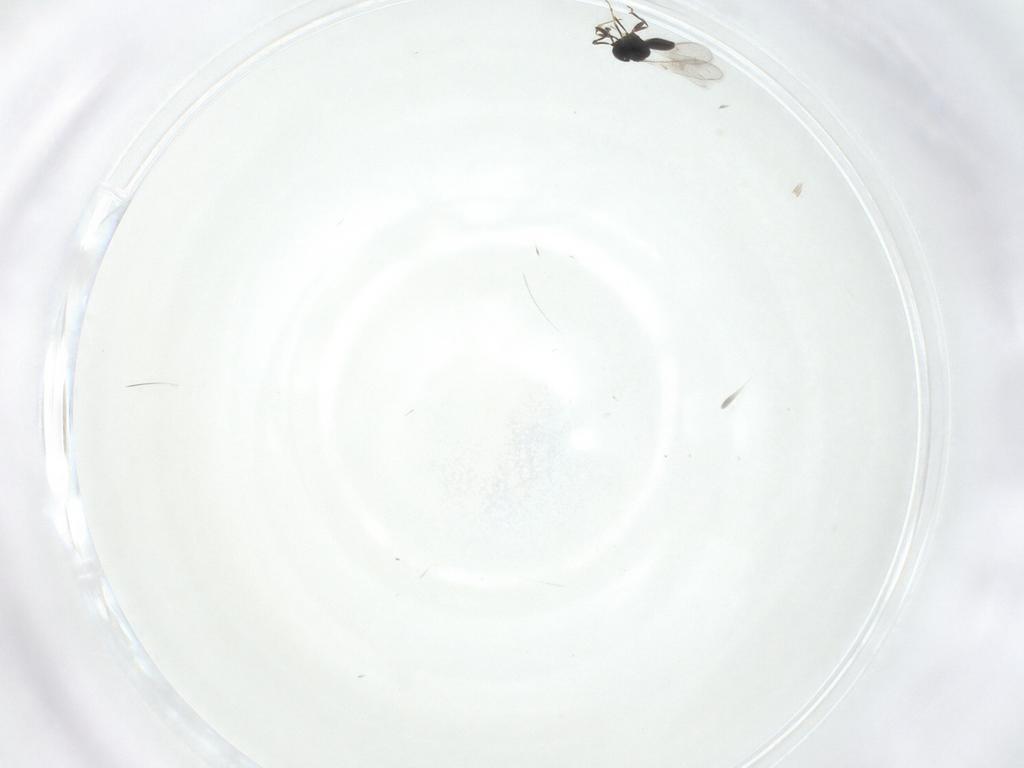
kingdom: Animalia
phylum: Arthropoda
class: Insecta
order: Hymenoptera
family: Scelionidae
